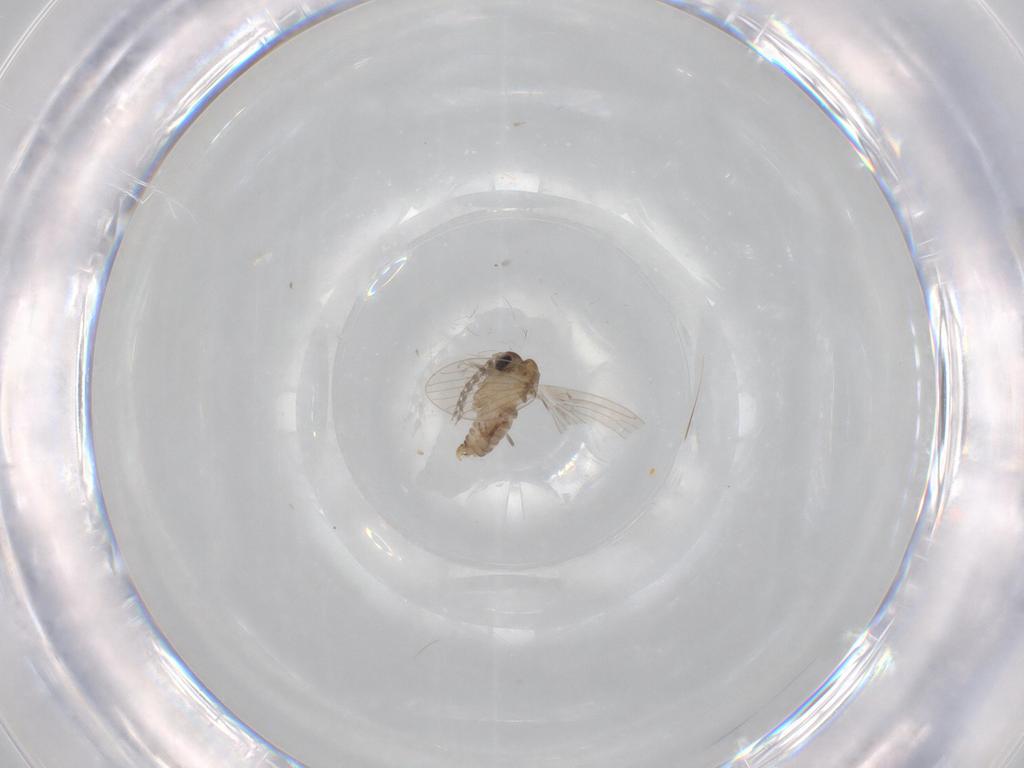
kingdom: Animalia
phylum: Arthropoda
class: Insecta
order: Diptera
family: Psychodidae
